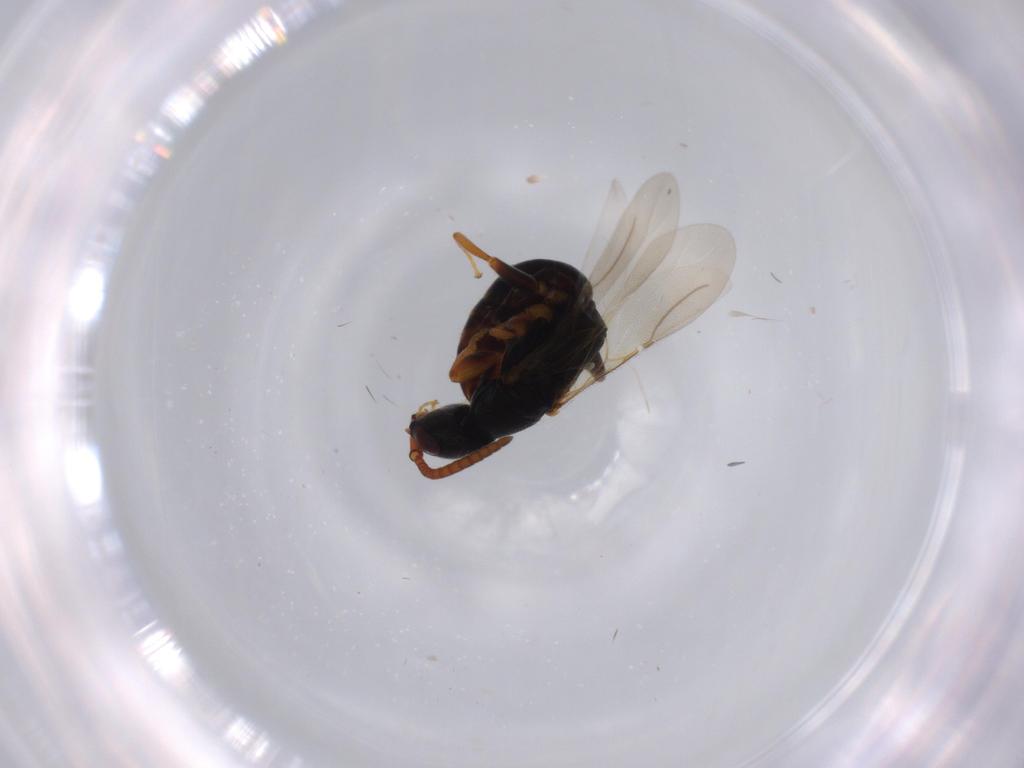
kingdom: Animalia
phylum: Arthropoda
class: Insecta
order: Hymenoptera
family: Bethylidae
